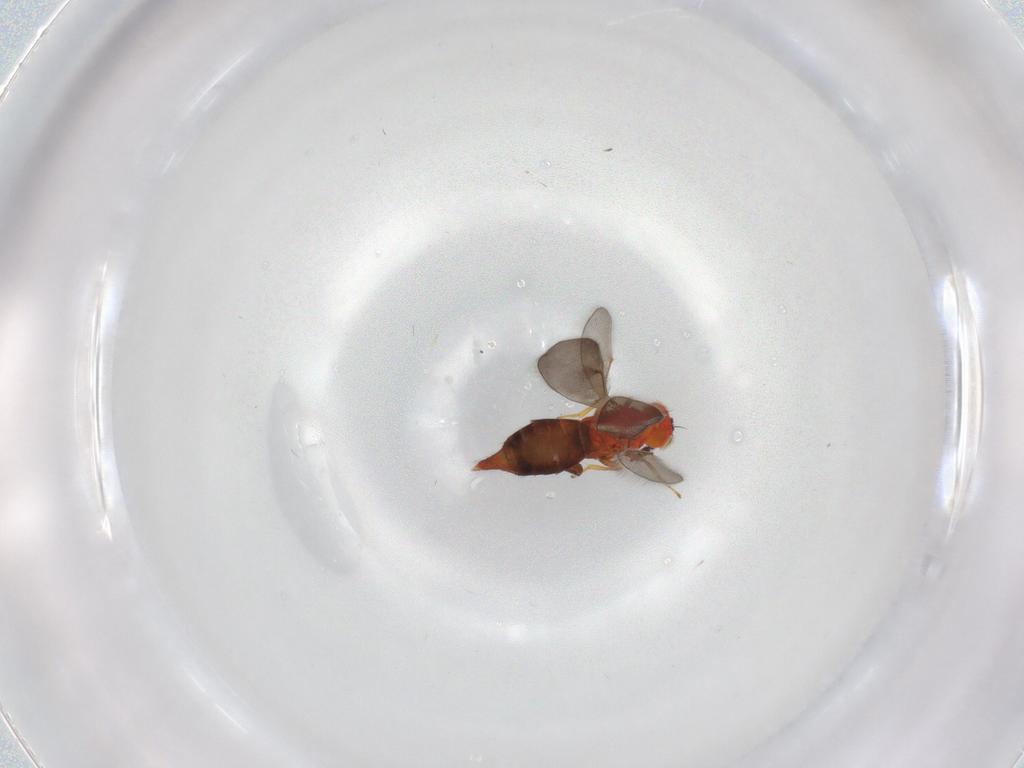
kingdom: Animalia
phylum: Arthropoda
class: Insecta
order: Hymenoptera
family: Aphelinidae
